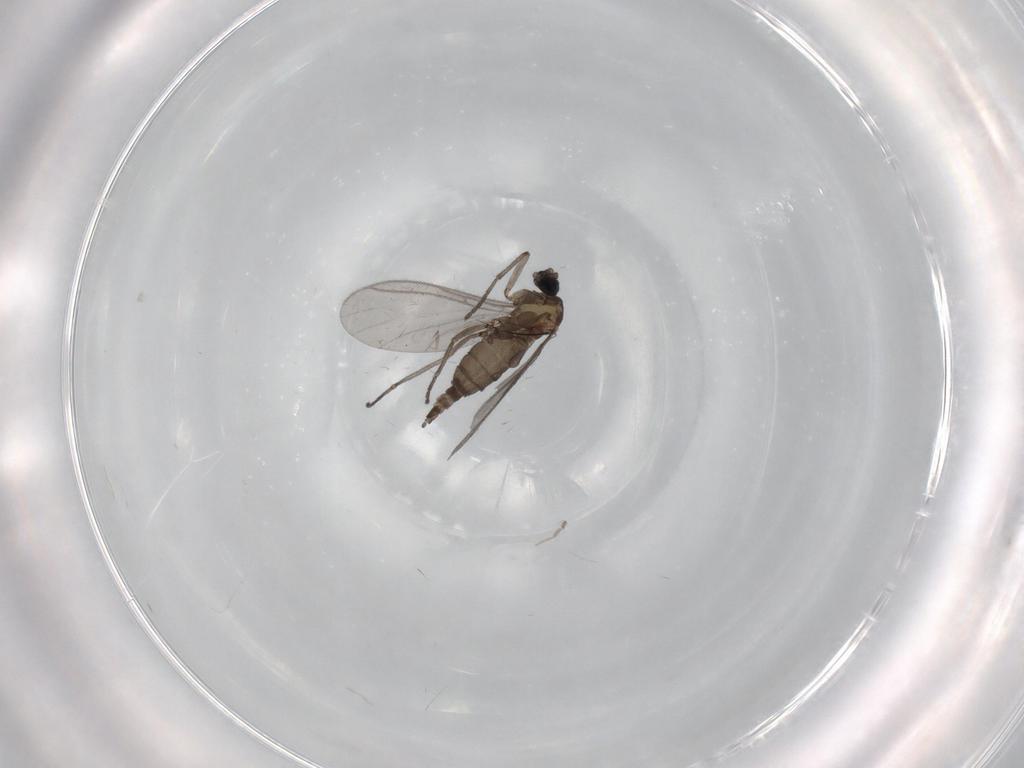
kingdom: Animalia
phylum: Arthropoda
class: Insecta
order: Diptera
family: Sciaridae
